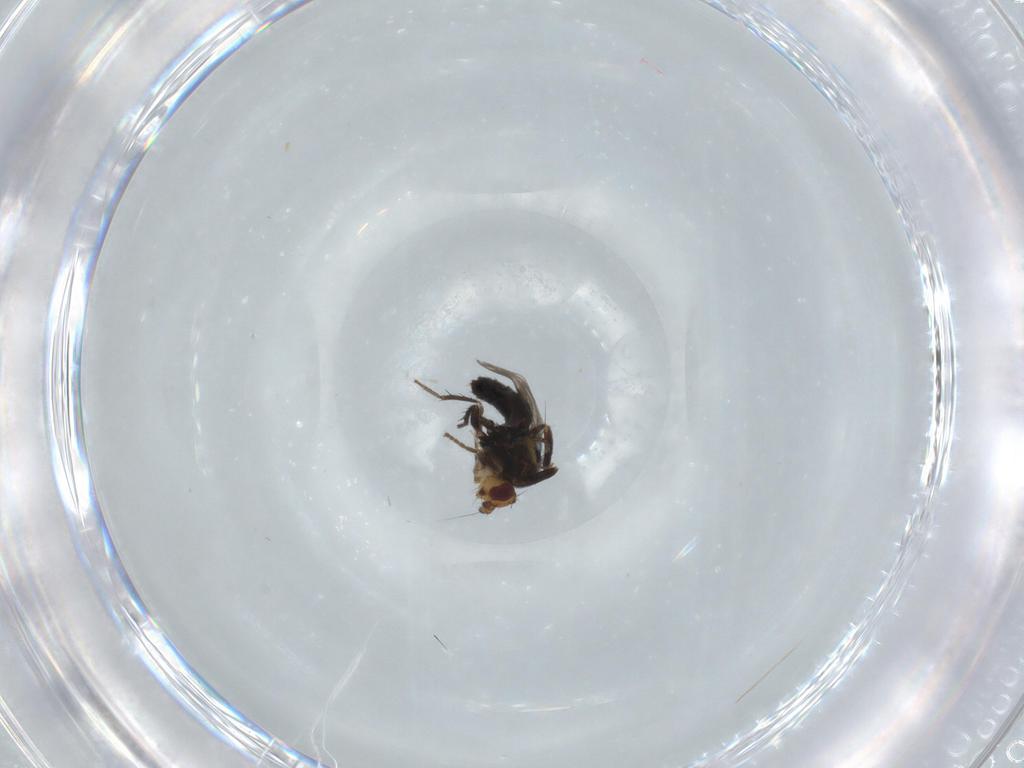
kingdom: Animalia
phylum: Arthropoda
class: Insecta
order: Diptera
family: Sphaeroceridae
